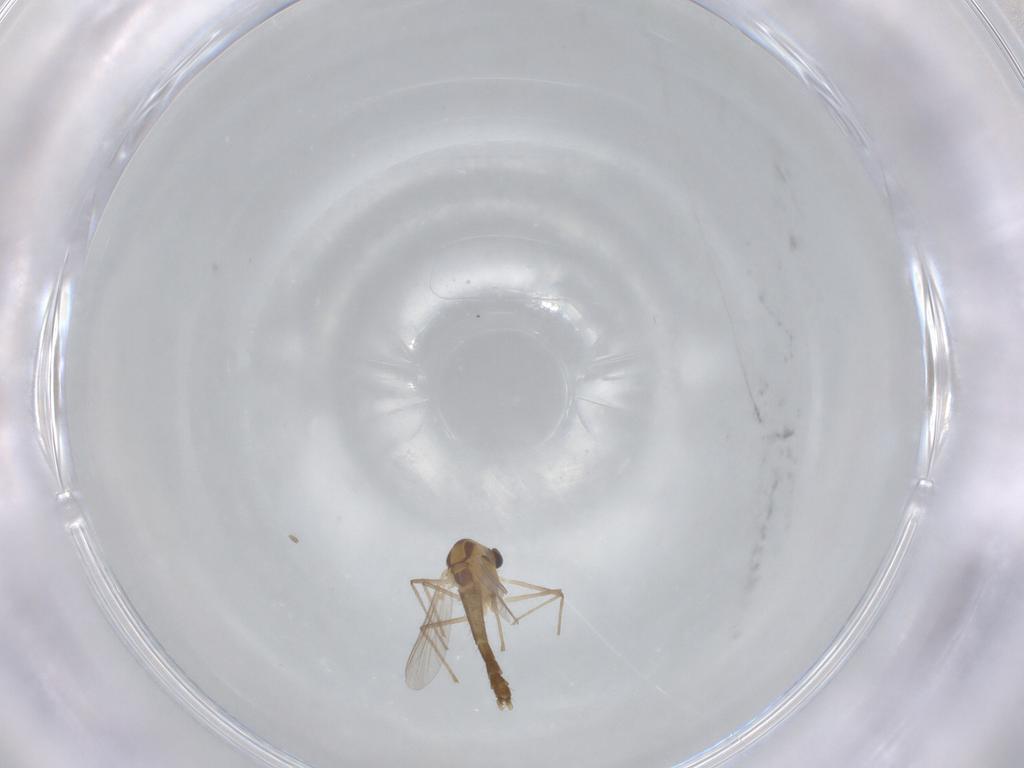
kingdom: Animalia
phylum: Arthropoda
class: Insecta
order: Diptera
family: Chironomidae
